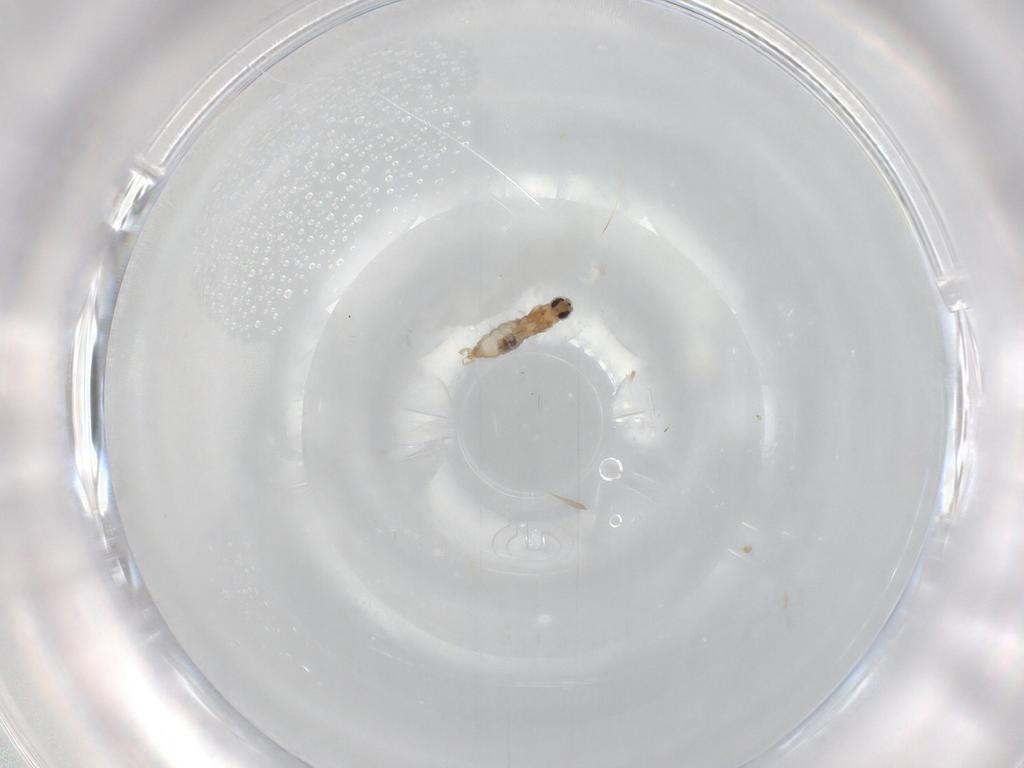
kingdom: Animalia
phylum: Arthropoda
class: Insecta
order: Diptera
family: Cecidomyiidae
